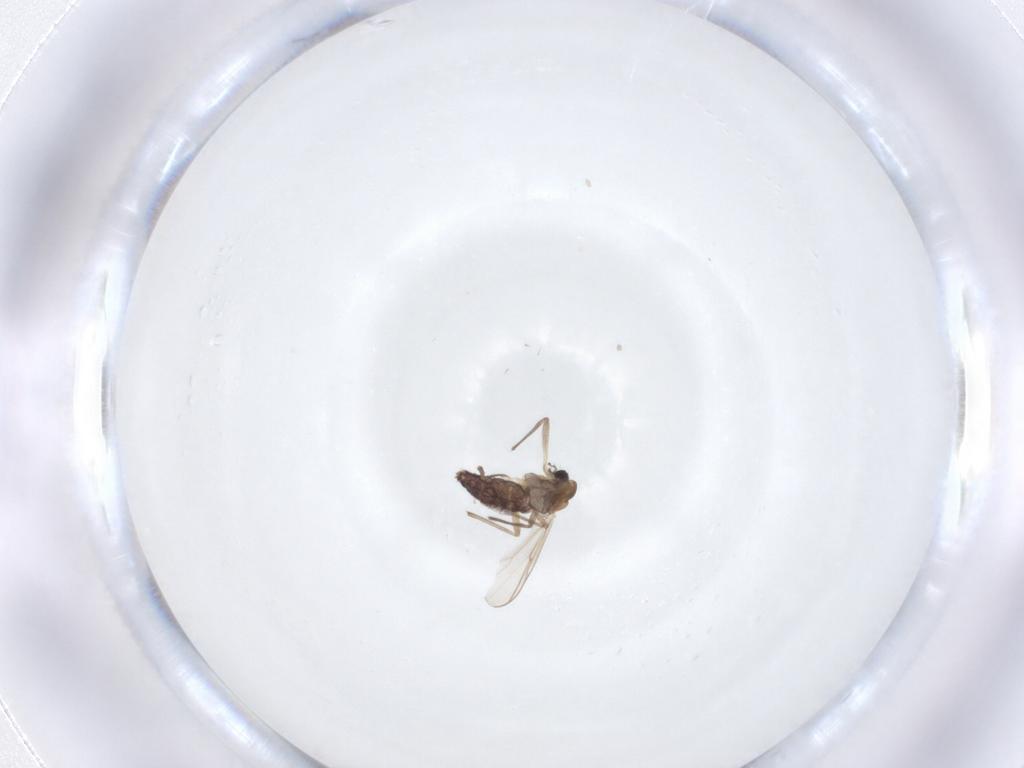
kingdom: Animalia
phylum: Arthropoda
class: Insecta
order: Diptera
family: Chironomidae
